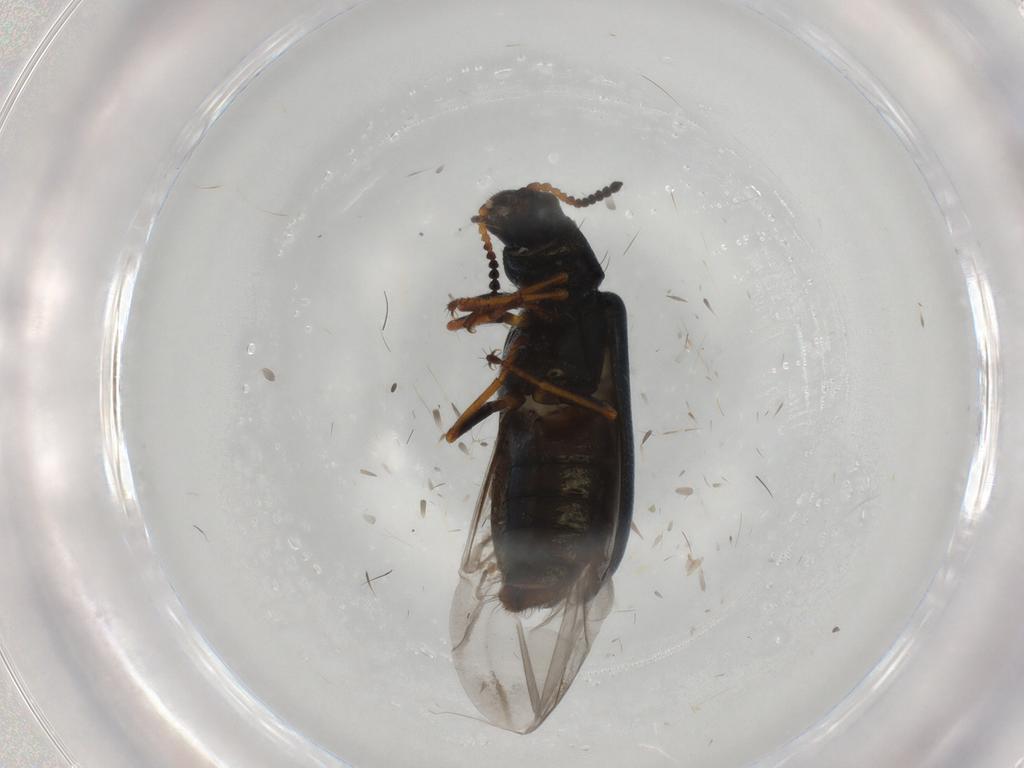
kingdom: Animalia
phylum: Arthropoda
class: Insecta
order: Coleoptera
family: Melyridae
